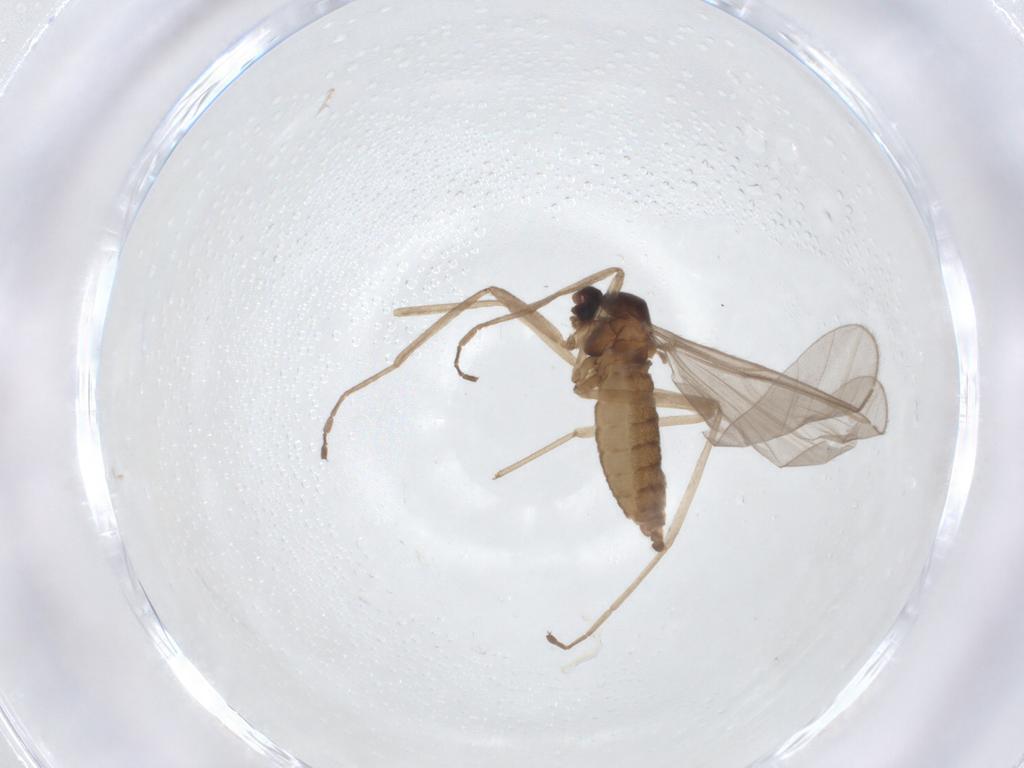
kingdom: Animalia
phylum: Arthropoda
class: Insecta
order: Diptera
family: Cecidomyiidae
